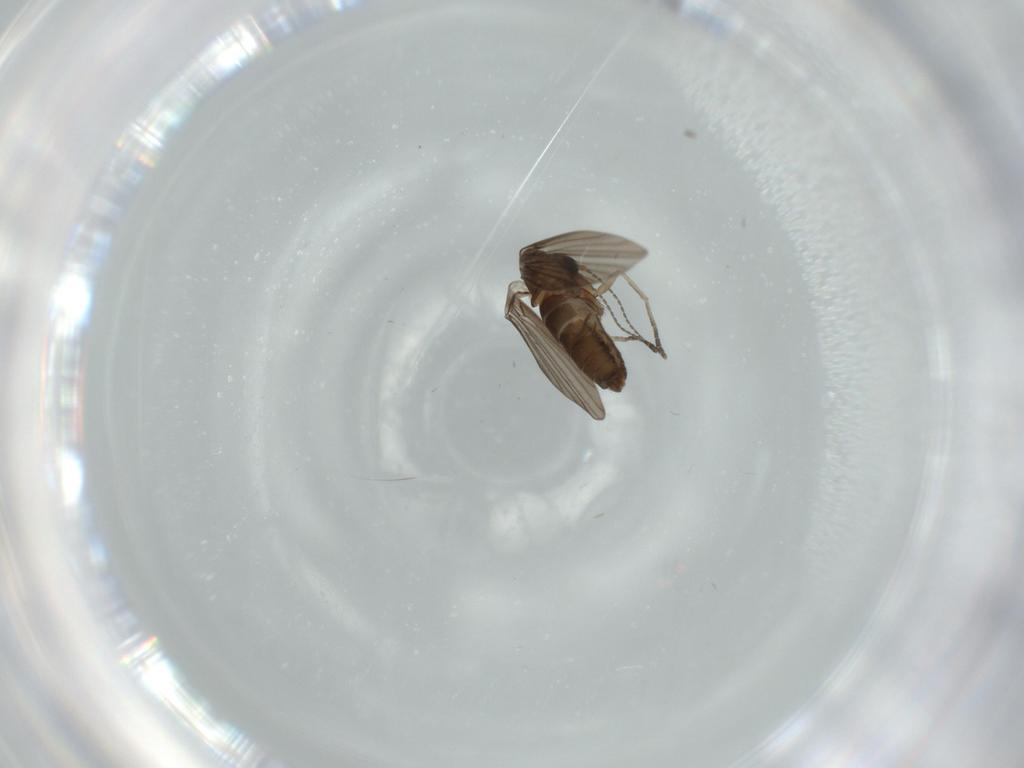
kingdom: Animalia
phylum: Arthropoda
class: Insecta
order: Diptera
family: Psychodidae
